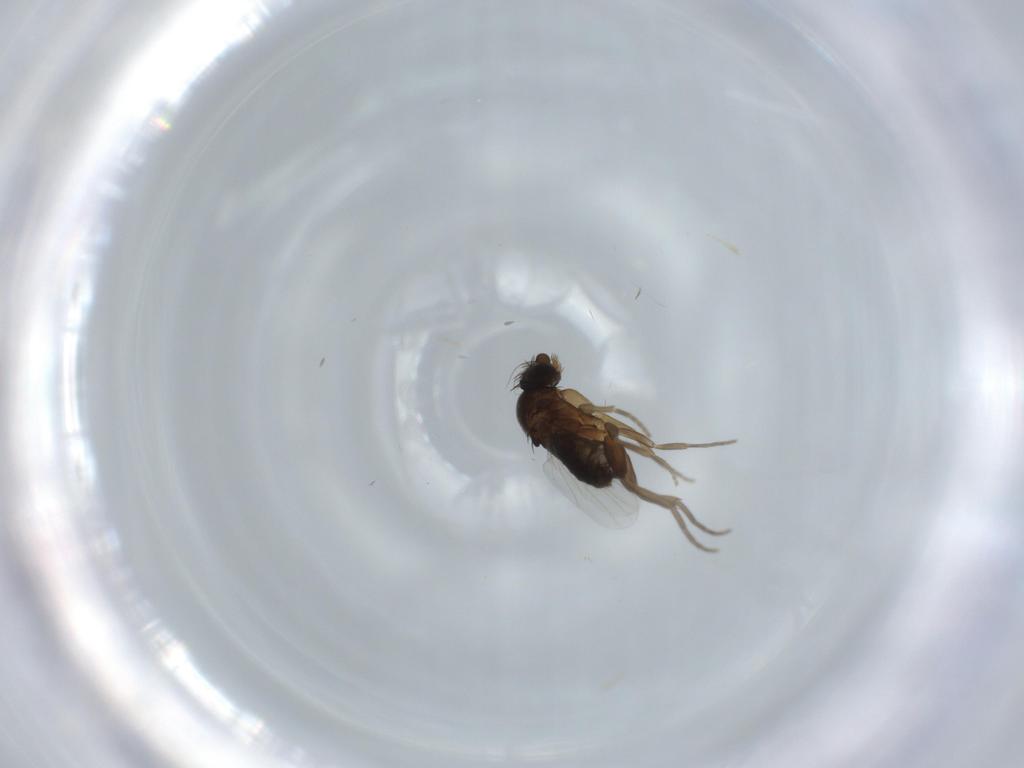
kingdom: Animalia
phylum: Arthropoda
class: Insecta
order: Diptera
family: Phoridae
